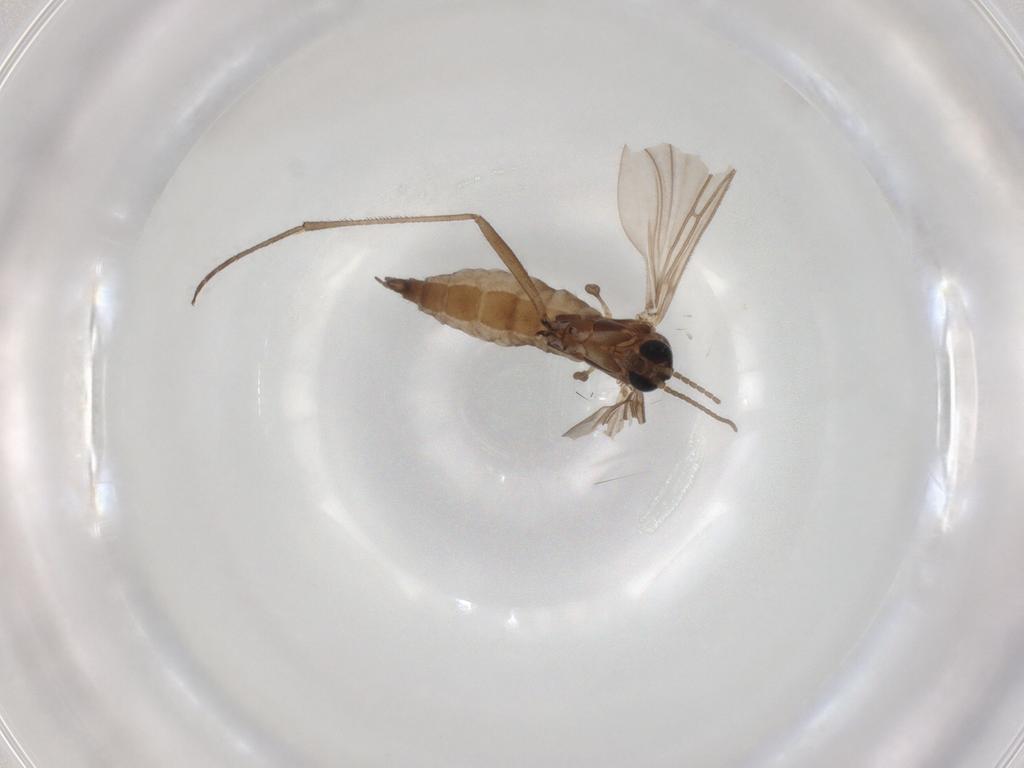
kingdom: Animalia
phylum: Arthropoda
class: Insecta
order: Diptera
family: Sciaridae
